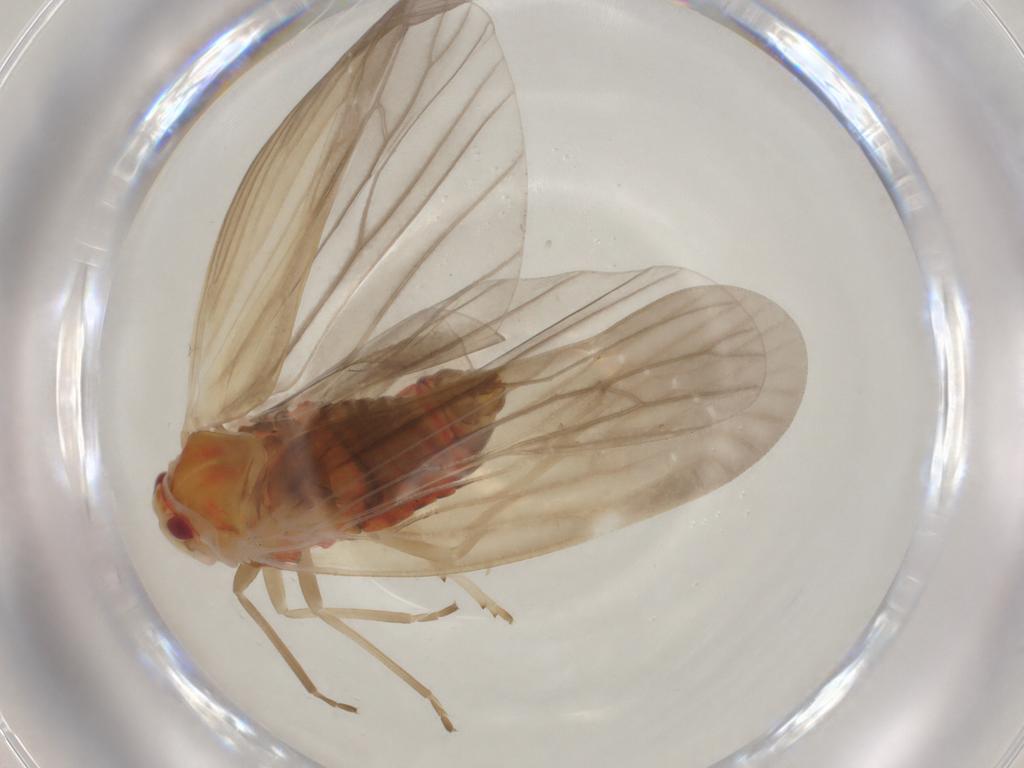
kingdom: Animalia
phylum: Arthropoda
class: Insecta
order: Hemiptera
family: Derbidae
